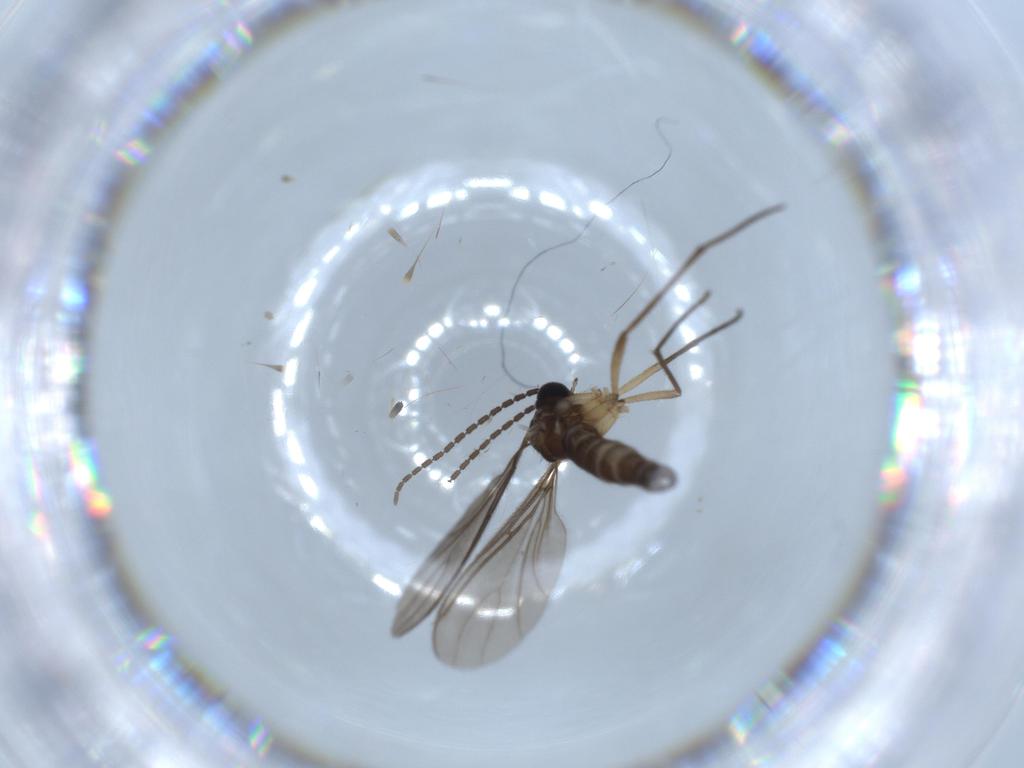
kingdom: Animalia
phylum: Arthropoda
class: Insecta
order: Diptera
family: Sciaridae
